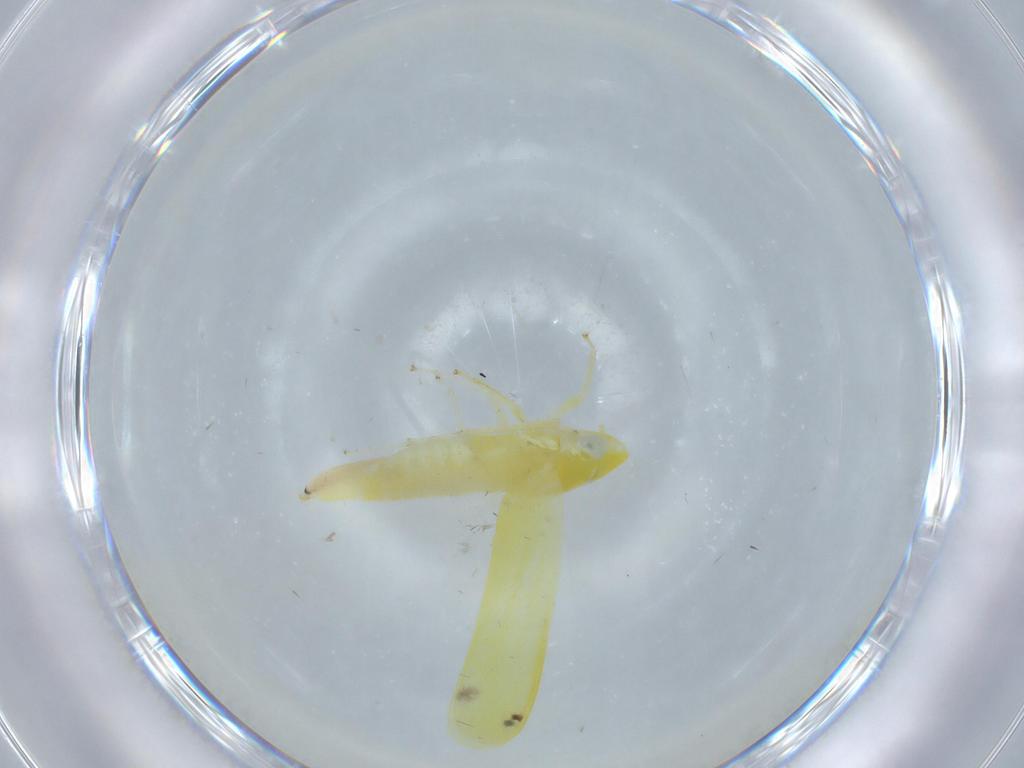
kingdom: Animalia
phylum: Arthropoda
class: Insecta
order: Hemiptera
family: Cicadellidae
